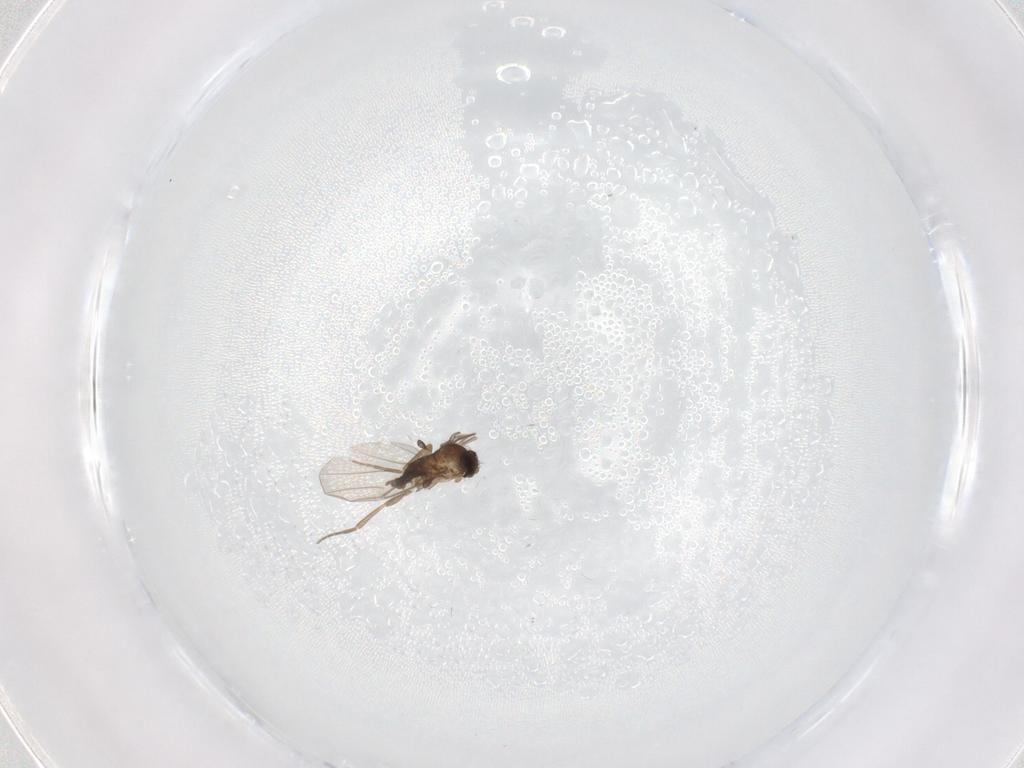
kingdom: Animalia
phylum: Arthropoda
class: Insecta
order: Diptera
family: Phoridae
